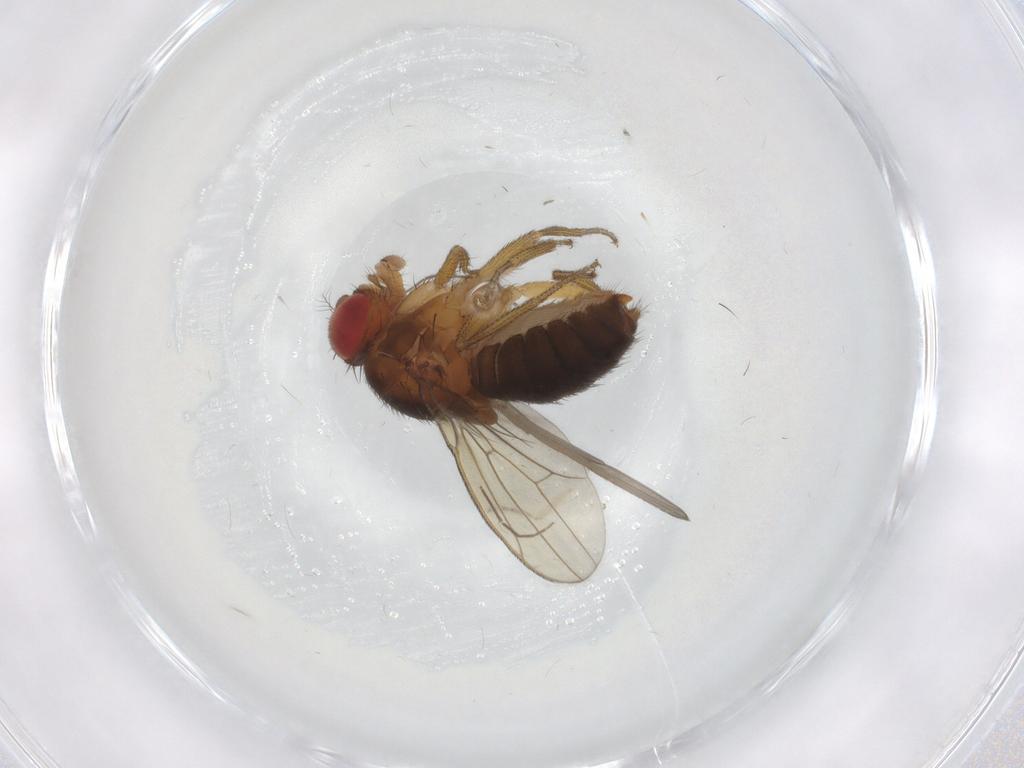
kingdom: Animalia
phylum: Arthropoda
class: Insecta
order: Diptera
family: Drosophilidae
